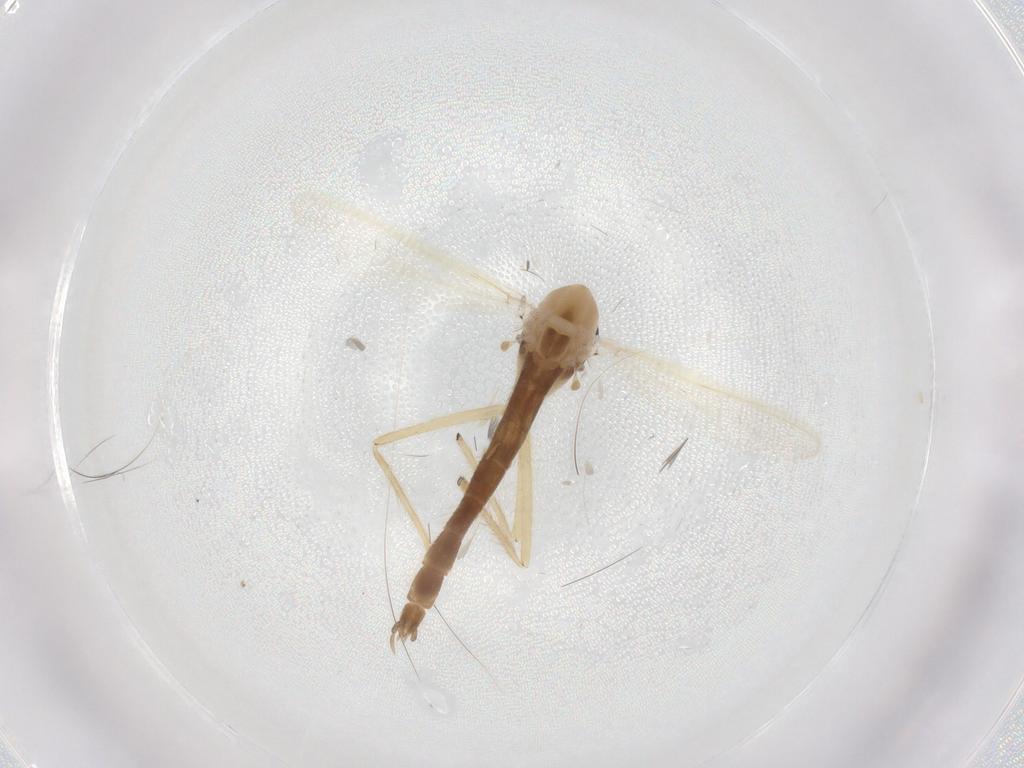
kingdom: Animalia
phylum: Arthropoda
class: Insecta
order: Diptera
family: Chironomidae
